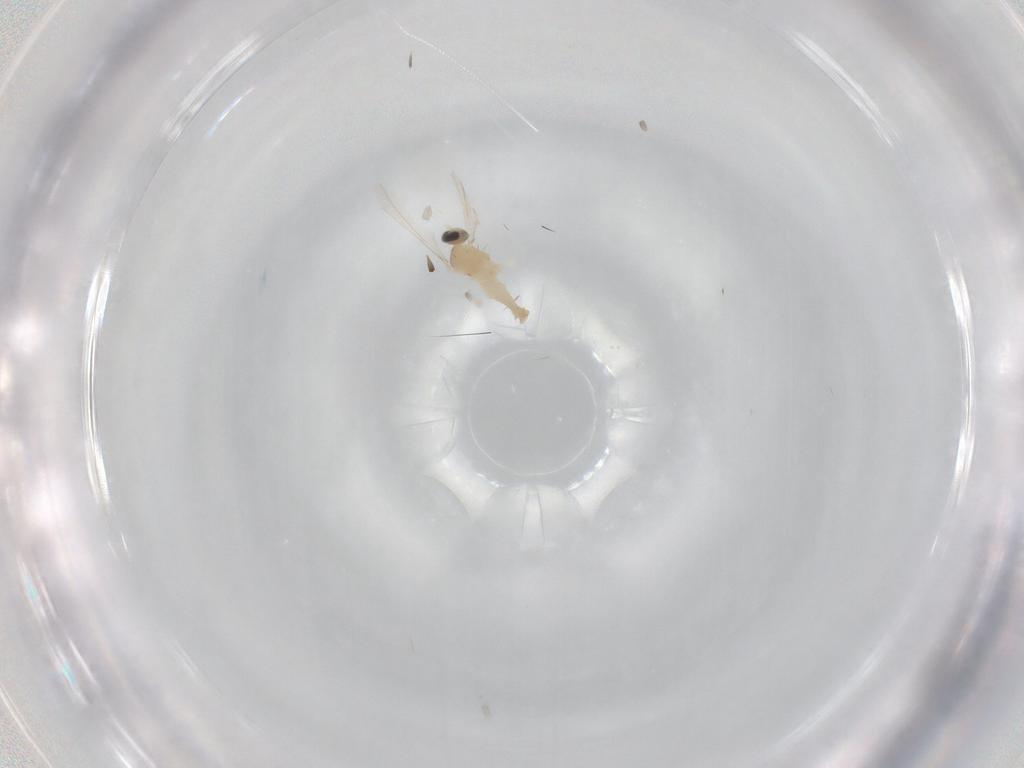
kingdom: Animalia
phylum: Arthropoda
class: Insecta
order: Diptera
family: Cecidomyiidae
